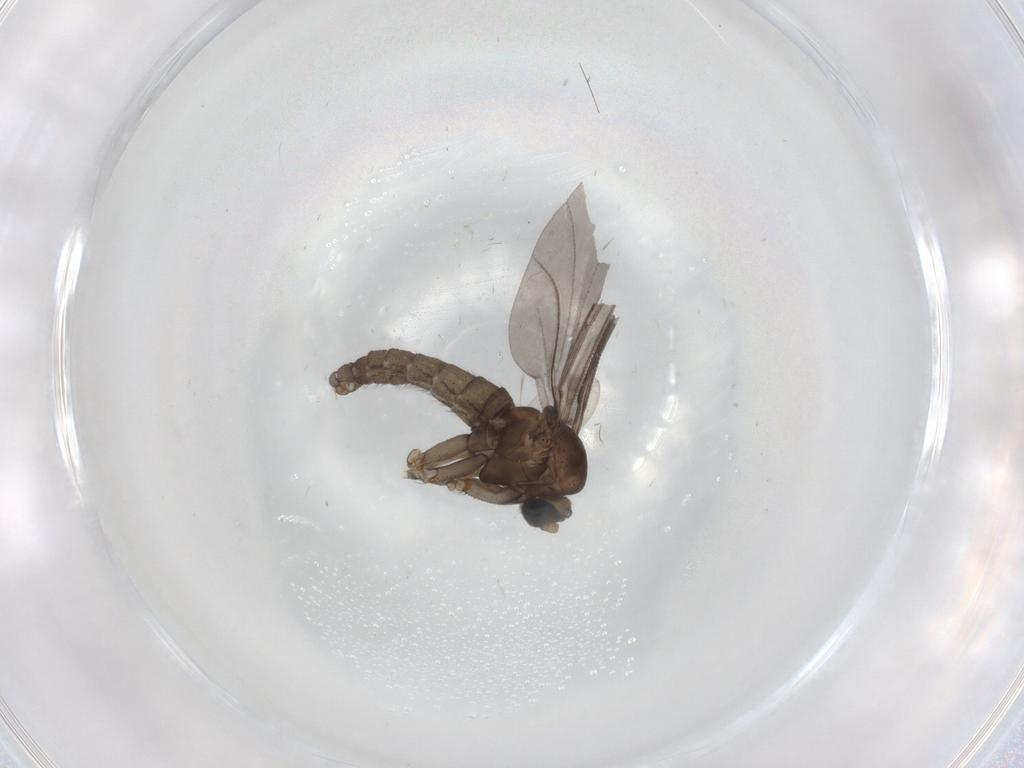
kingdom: Animalia
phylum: Arthropoda
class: Insecta
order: Diptera
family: Sciaridae
